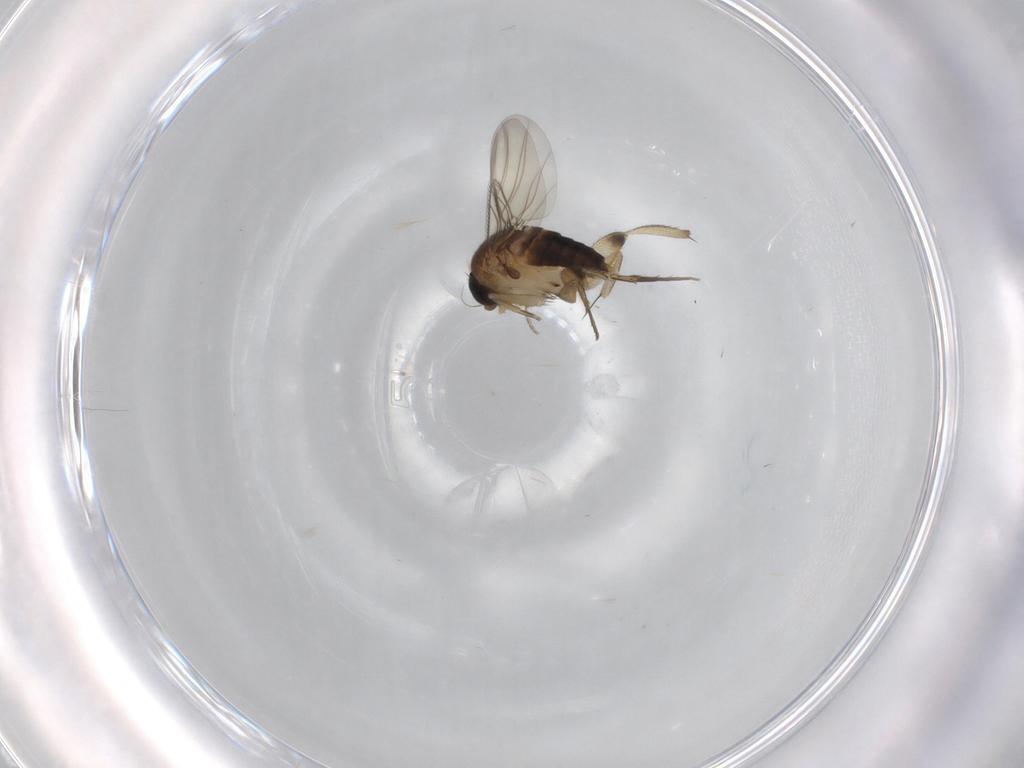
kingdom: Animalia
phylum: Arthropoda
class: Insecta
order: Diptera
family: Phoridae
